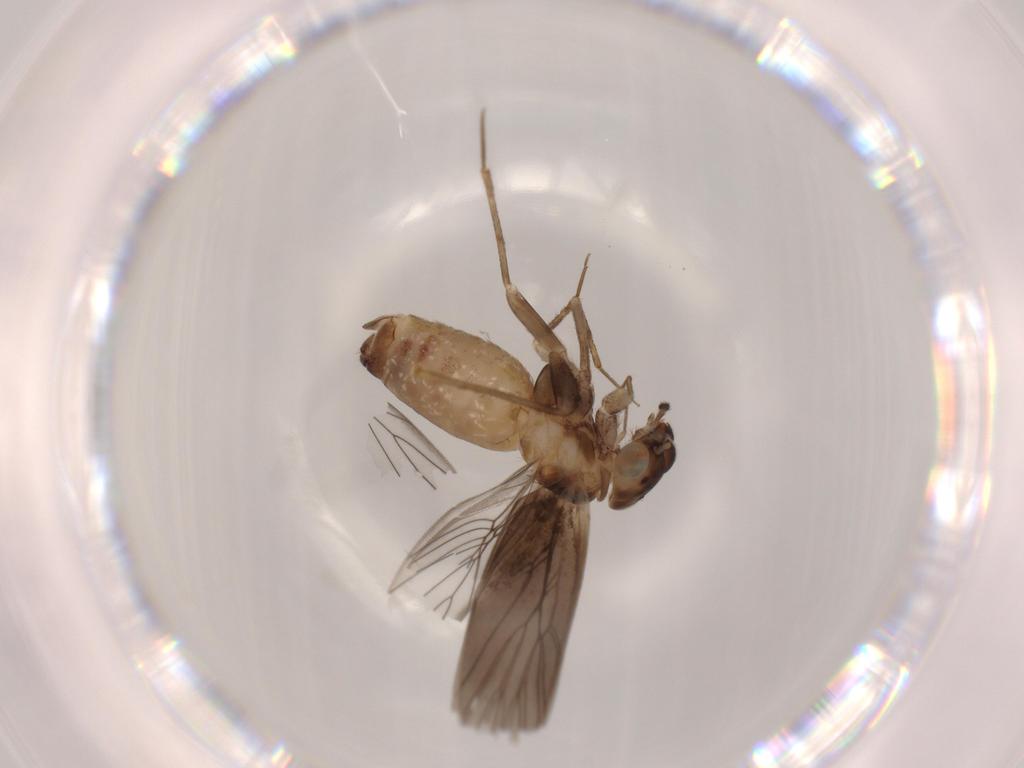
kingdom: Animalia
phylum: Arthropoda
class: Insecta
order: Psocodea
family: Lepidopsocidae
